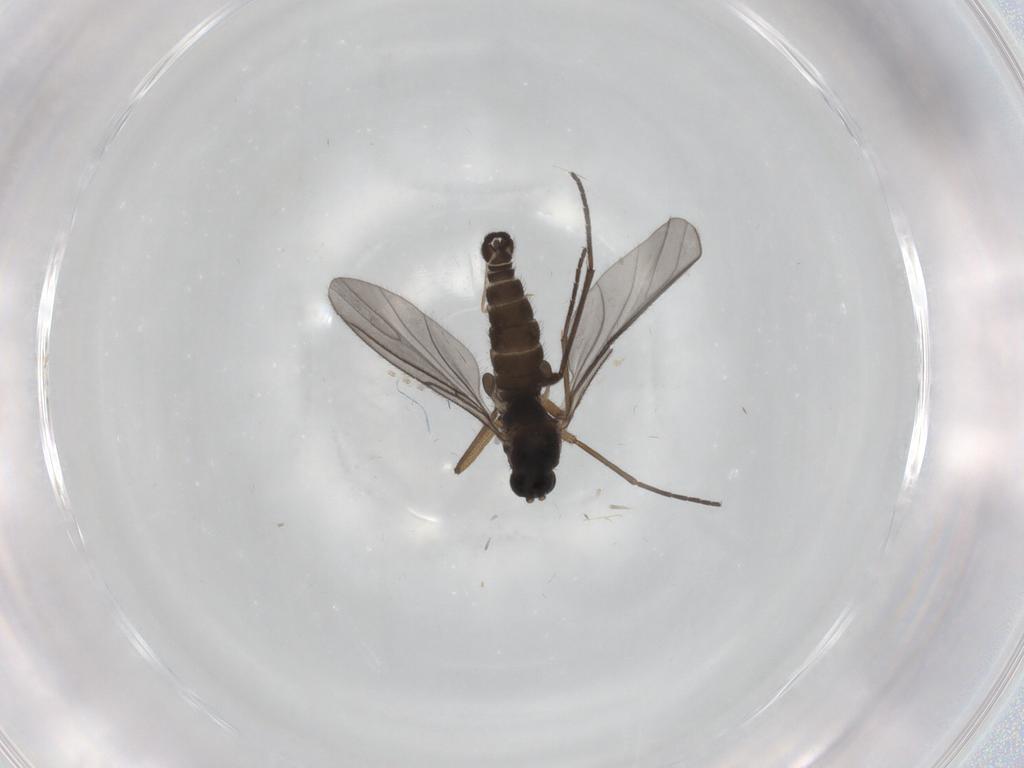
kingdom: Animalia
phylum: Arthropoda
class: Insecta
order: Diptera
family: Sciaridae
